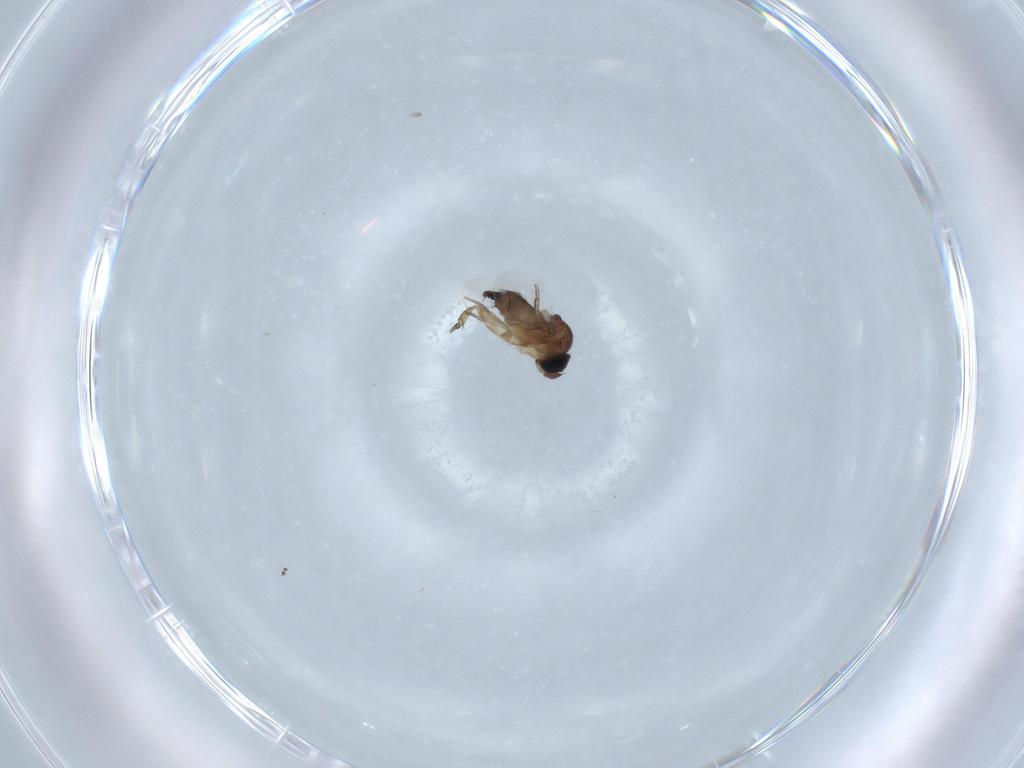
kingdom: Animalia
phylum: Arthropoda
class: Insecta
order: Diptera
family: Phoridae
